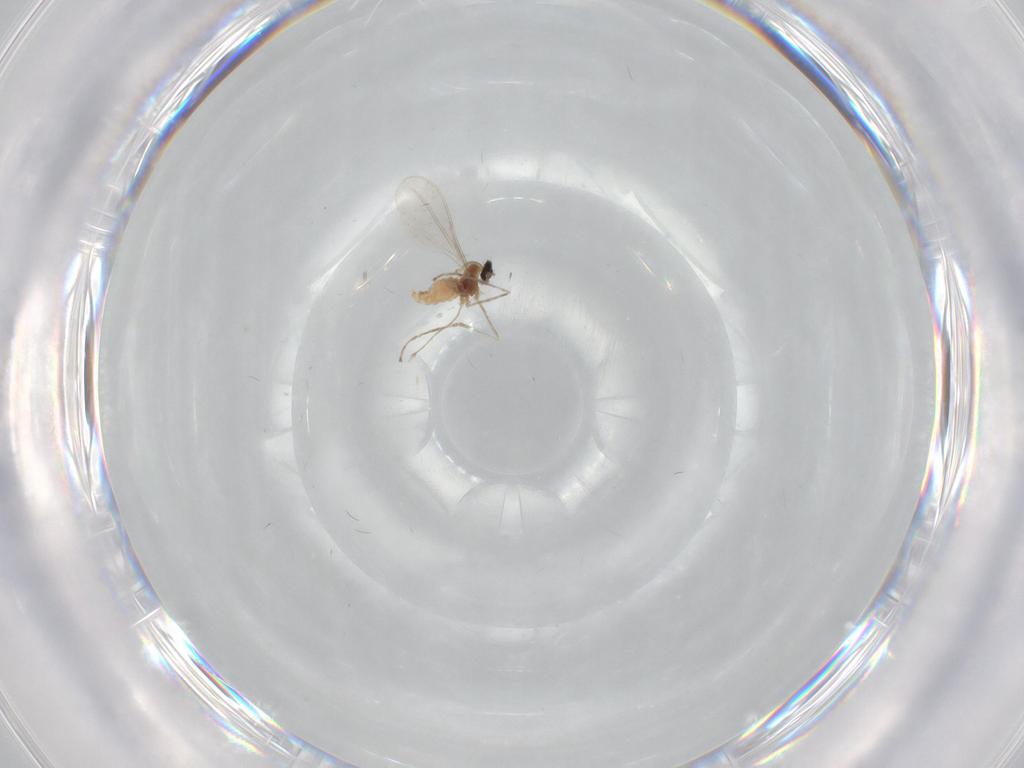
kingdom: Animalia
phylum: Arthropoda
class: Insecta
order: Diptera
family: Cecidomyiidae
